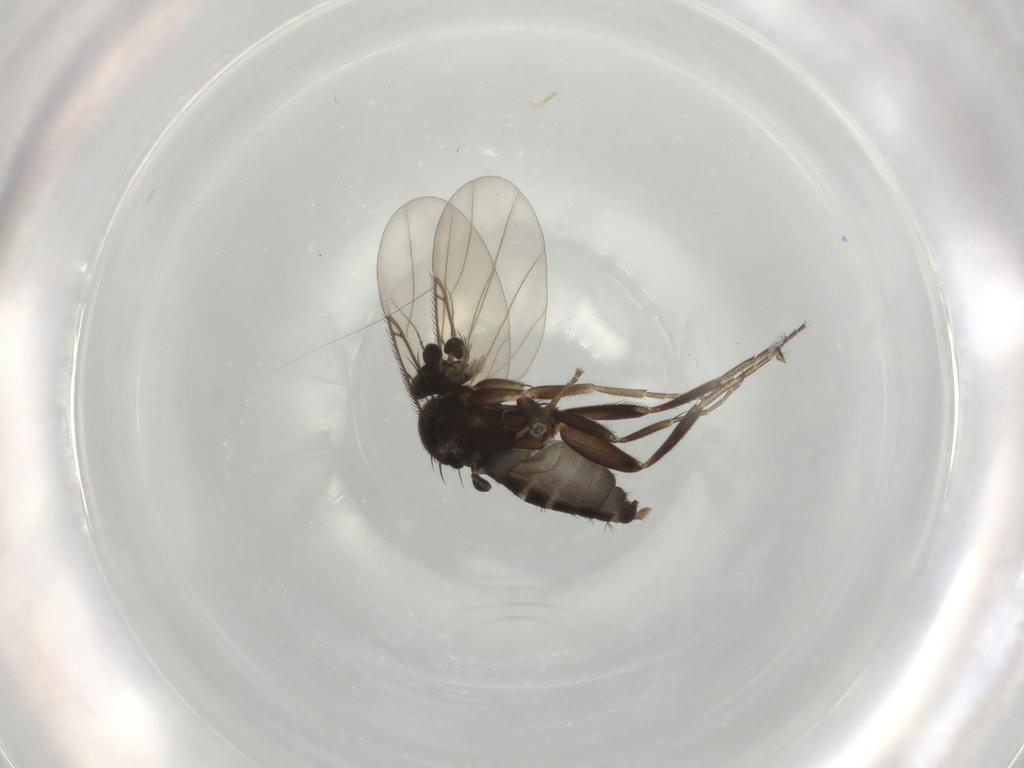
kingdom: Animalia
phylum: Arthropoda
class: Insecta
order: Diptera
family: Phoridae
